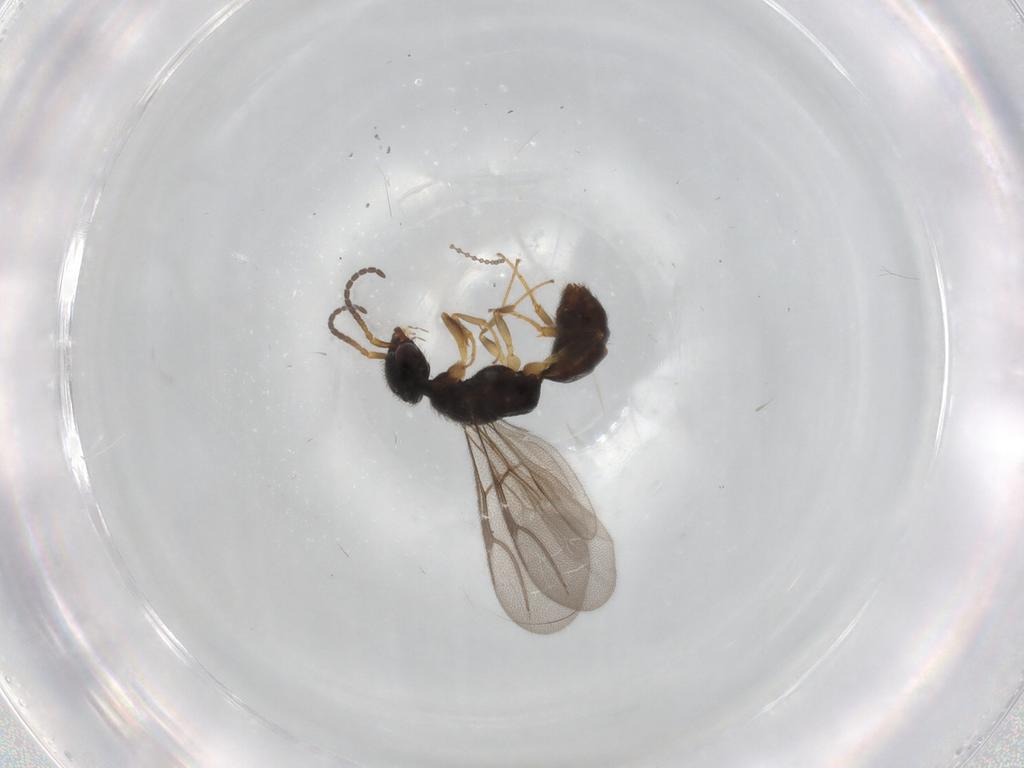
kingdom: Animalia
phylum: Arthropoda
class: Insecta
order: Hymenoptera
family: Bethylidae
